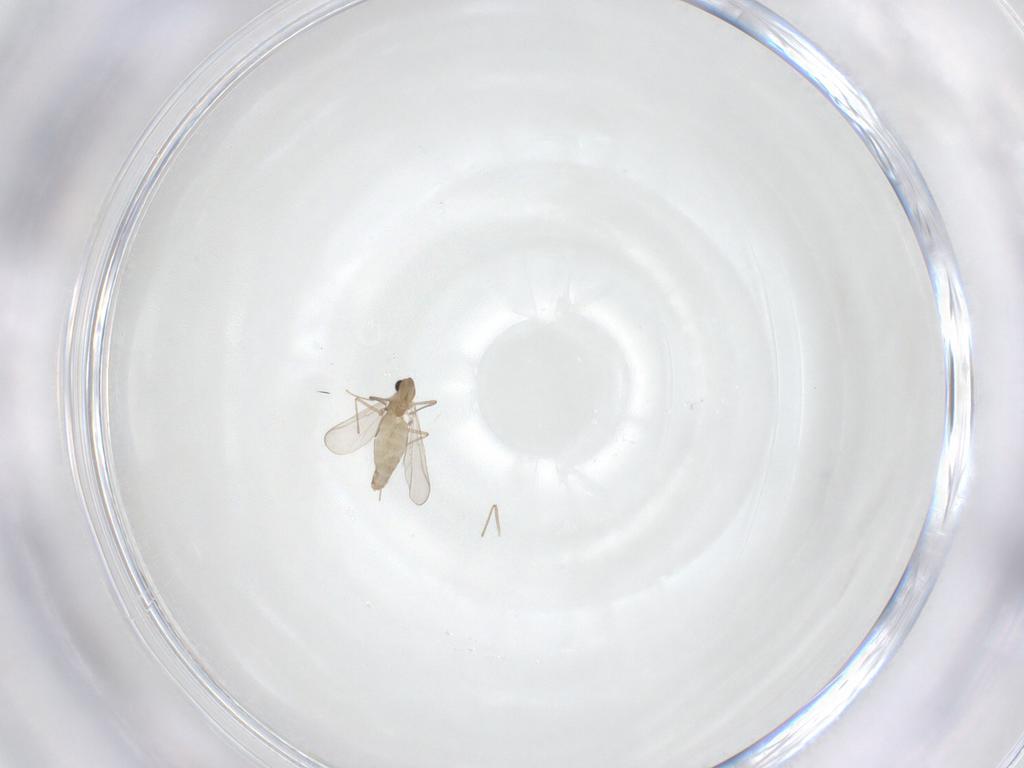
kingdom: Animalia
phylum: Arthropoda
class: Insecta
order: Diptera
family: Chironomidae
